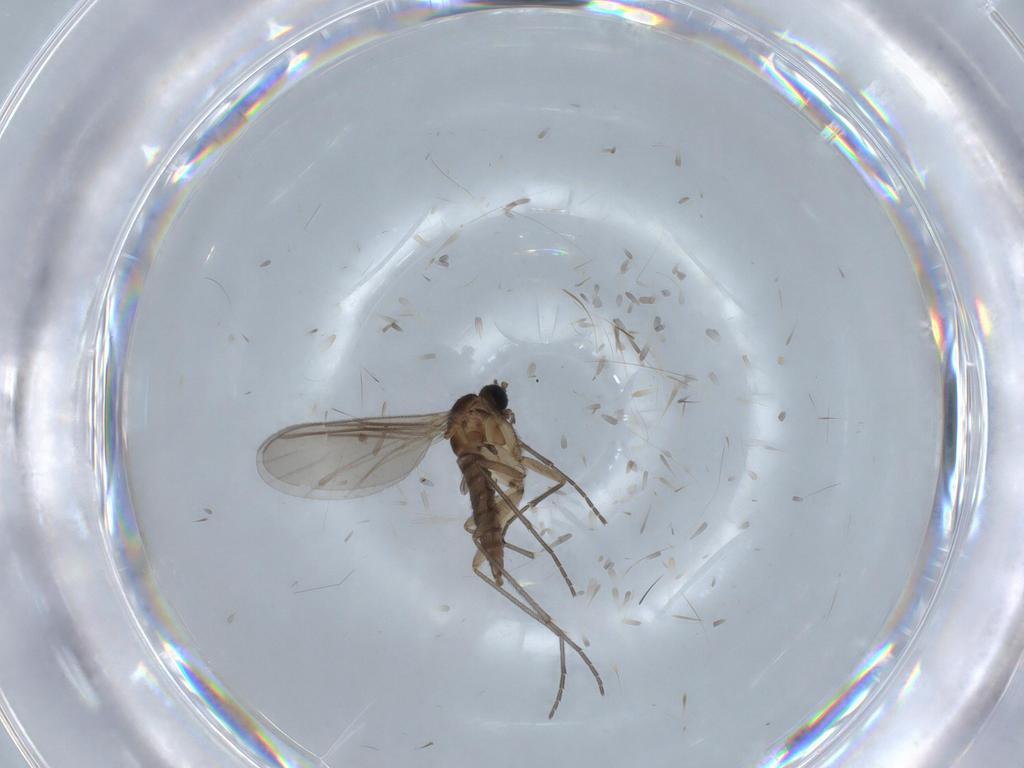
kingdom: Animalia
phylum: Arthropoda
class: Insecta
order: Diptera
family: Sciaridae
